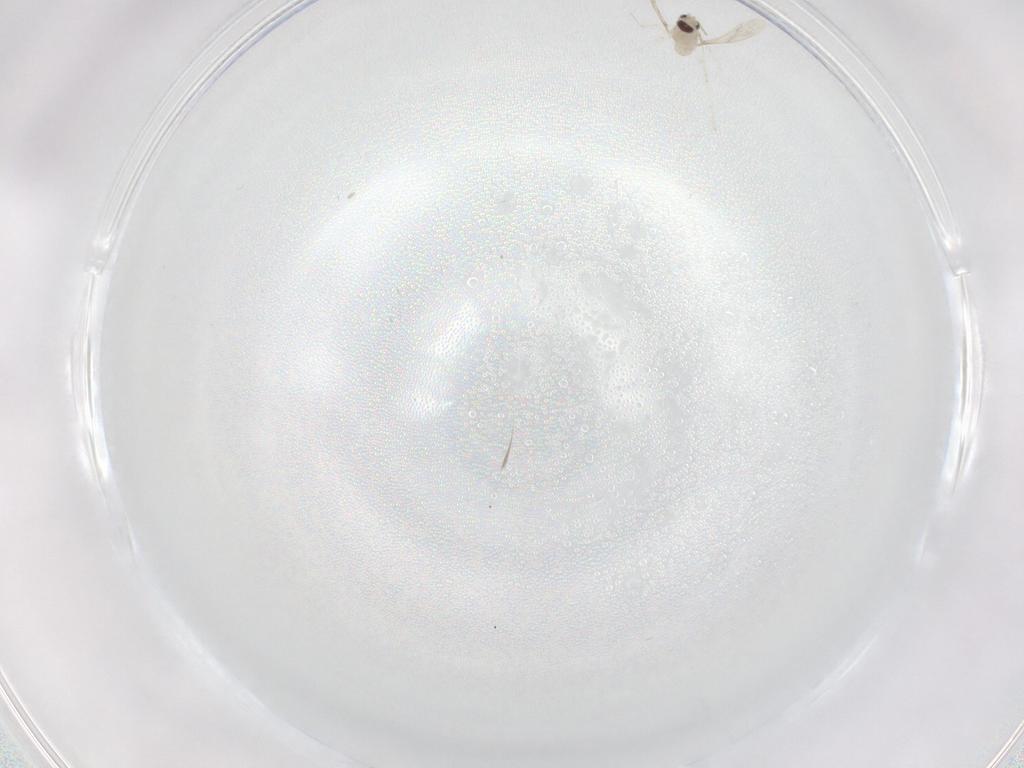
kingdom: Animalia
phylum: Arthropoda
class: Insecta
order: Diptera
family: Cecidomyiidae
